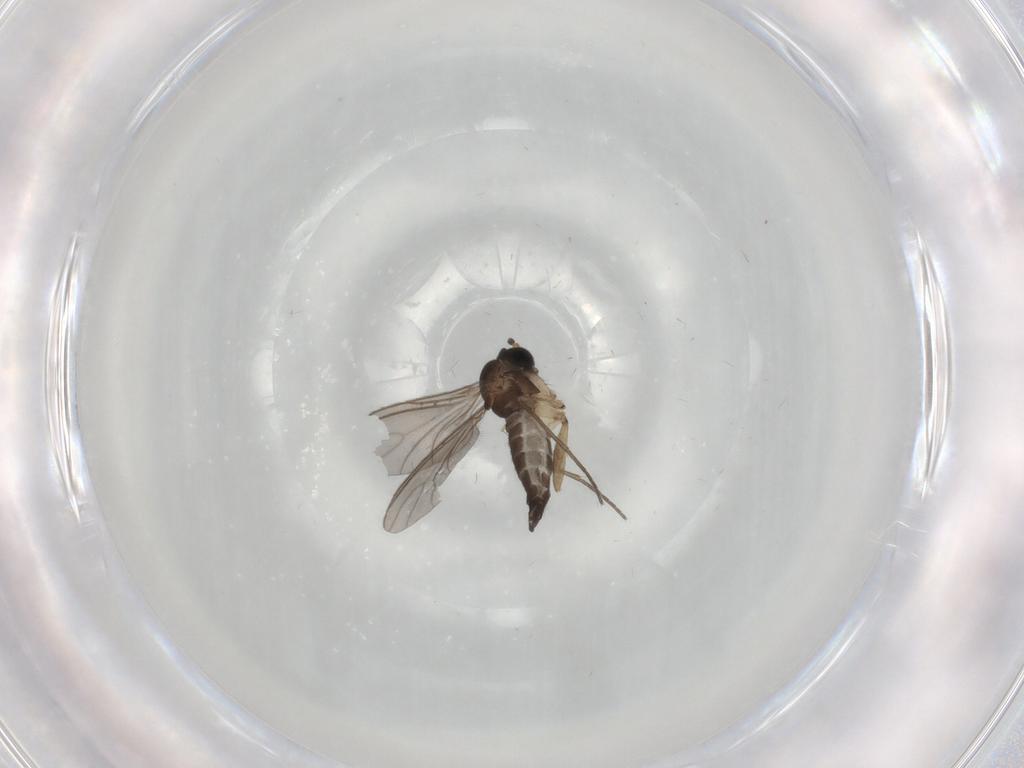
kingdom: Animalia
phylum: Arthropoda
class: Insecta
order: Diptera
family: Sciaridae
